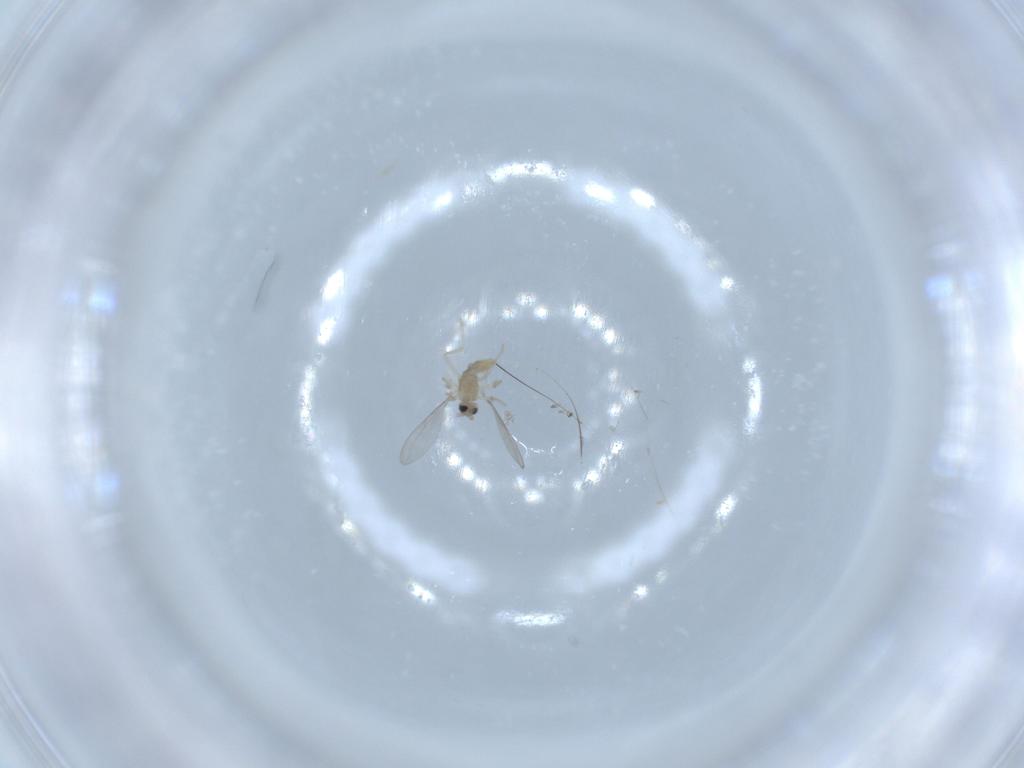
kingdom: Animalia
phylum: Arthropoda
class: Insecta
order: Diptera
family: Cecidomyiidae
